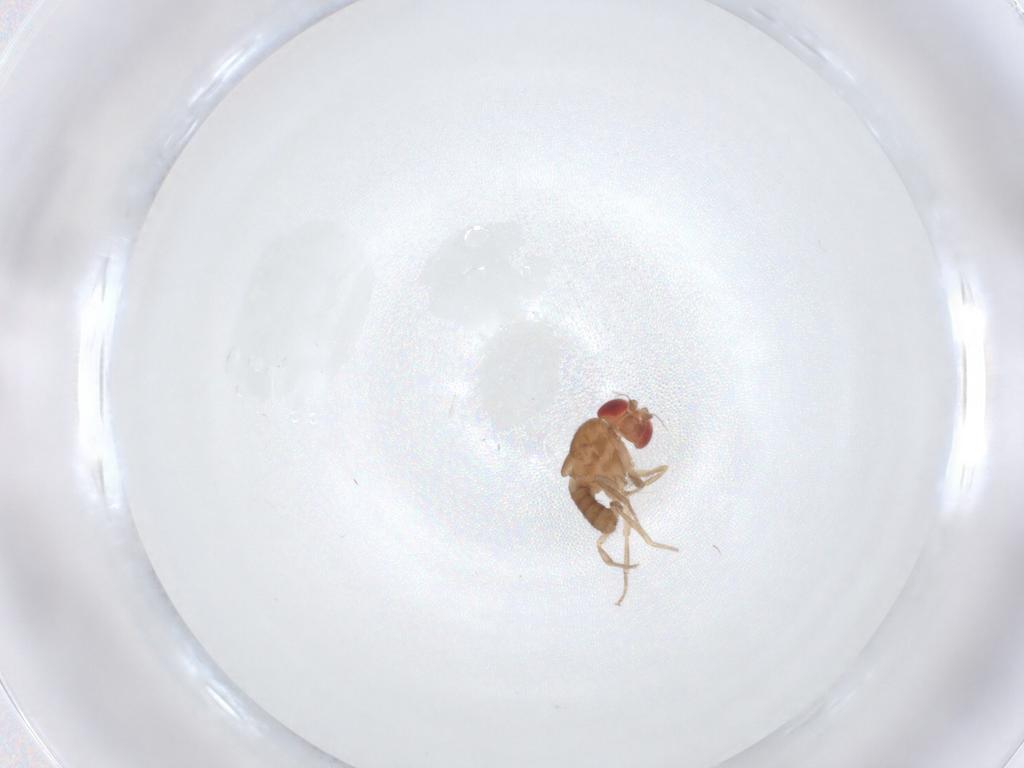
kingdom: Animalia
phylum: Arthropoda
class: Insecta
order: Diptera
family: Drosophilidae
